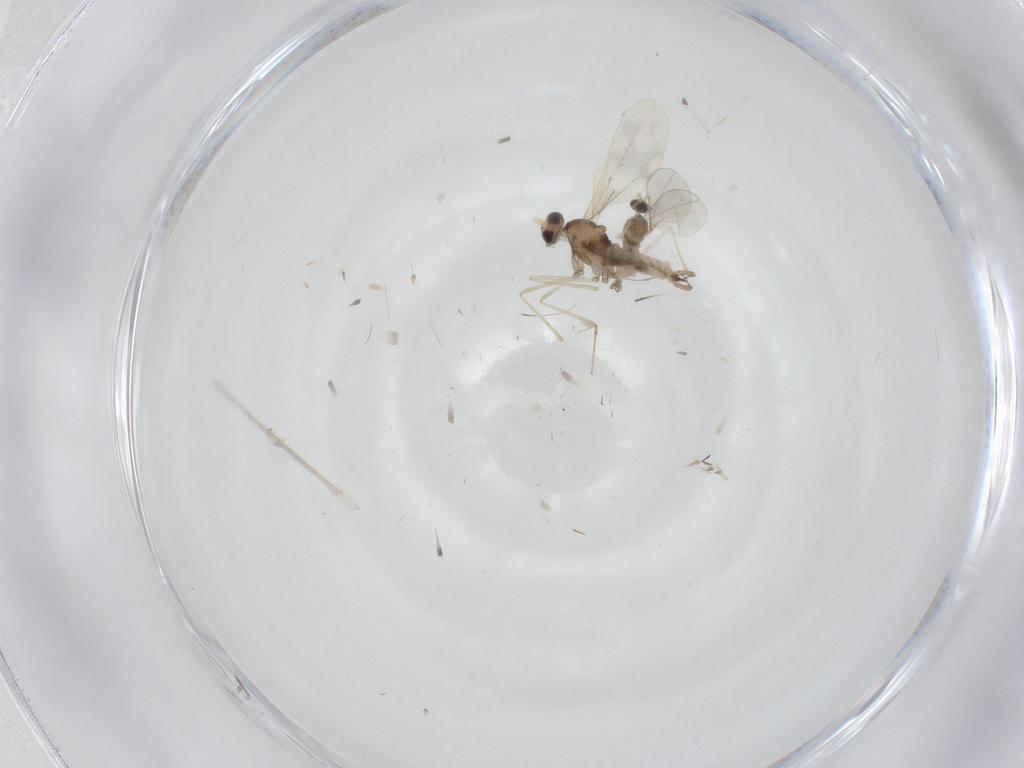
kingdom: Animalia
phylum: Arthropoda
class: Insecta
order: Diptera
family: Cecidomyiidae
